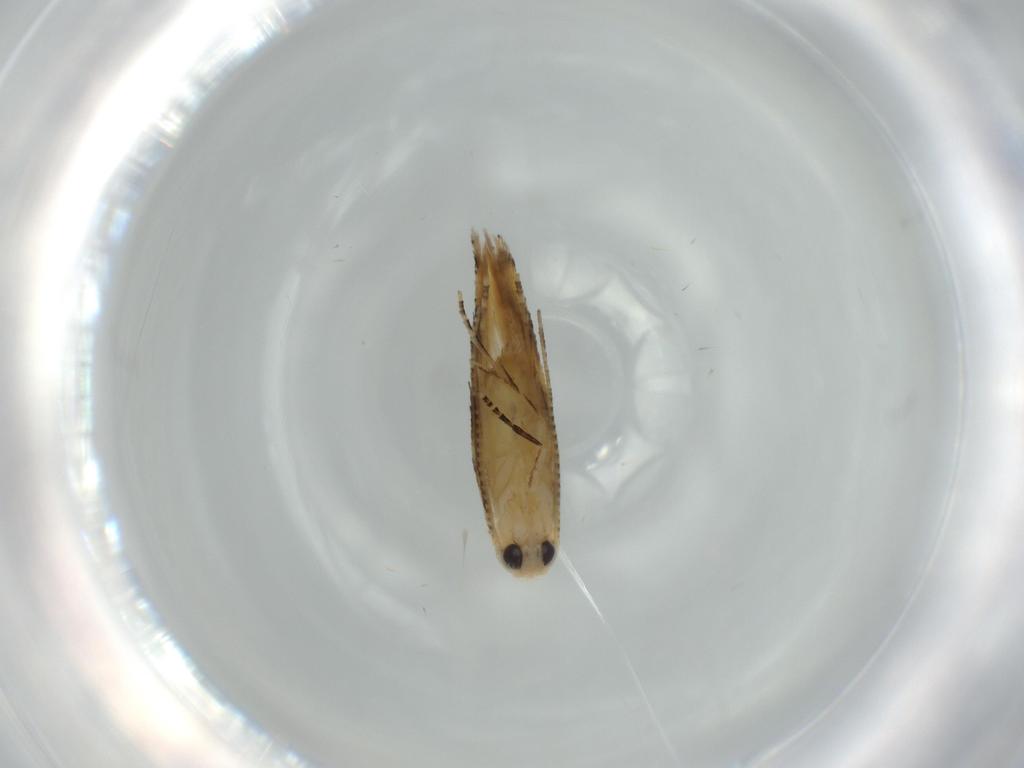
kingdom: Animalia
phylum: Arthropoda
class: Insecta
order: Lepidoptera
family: Bucculatricidae
